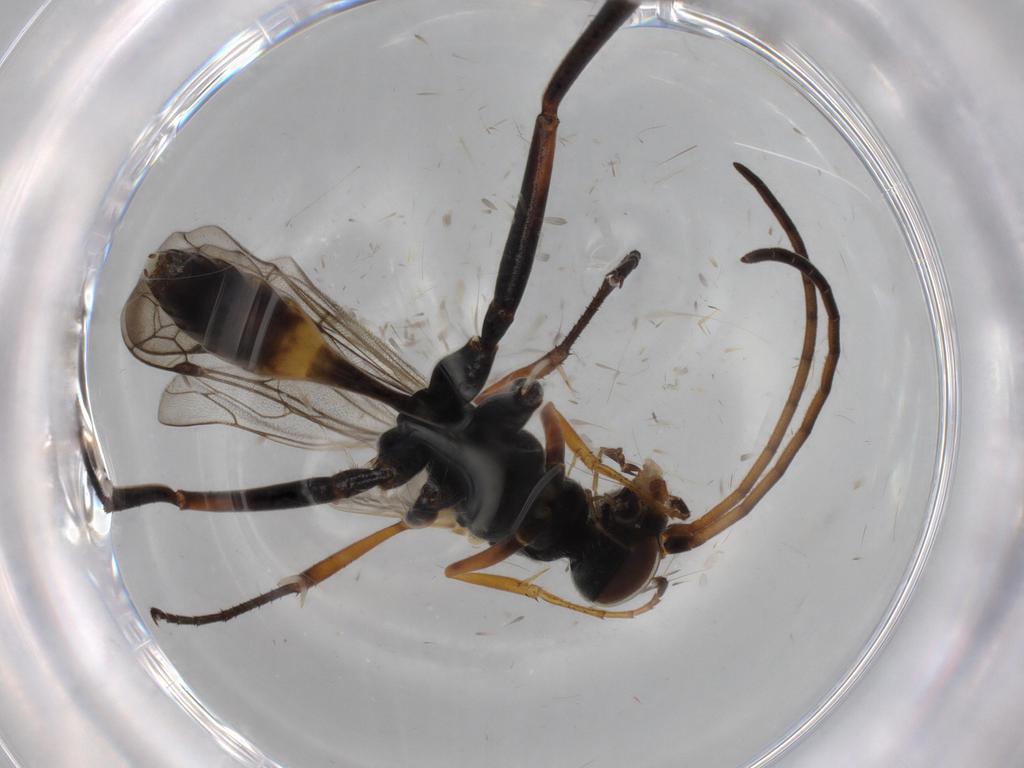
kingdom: Animalia
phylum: Arthropoda
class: Insecta
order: Hymenoptera
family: Pompilidae
